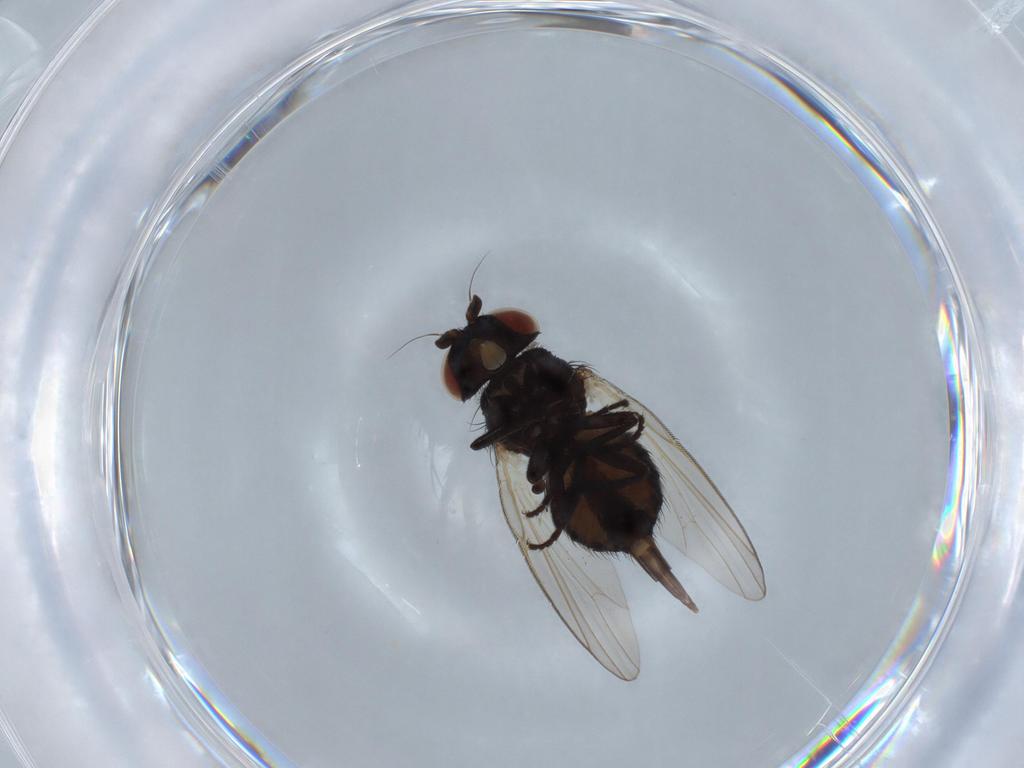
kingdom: Animalia
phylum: Arthropoda
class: Insecta
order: Diptera
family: Lonchaeidae
